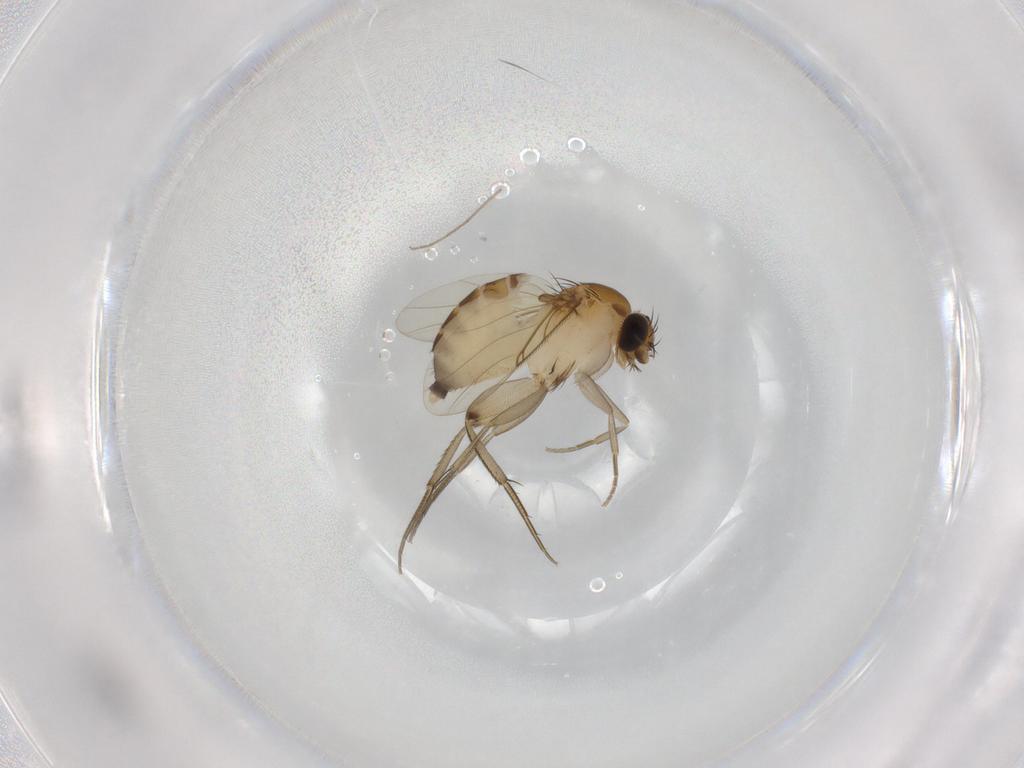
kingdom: Animalia
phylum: Arthropoda
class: Insecta
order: Diptera
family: Phoridae
